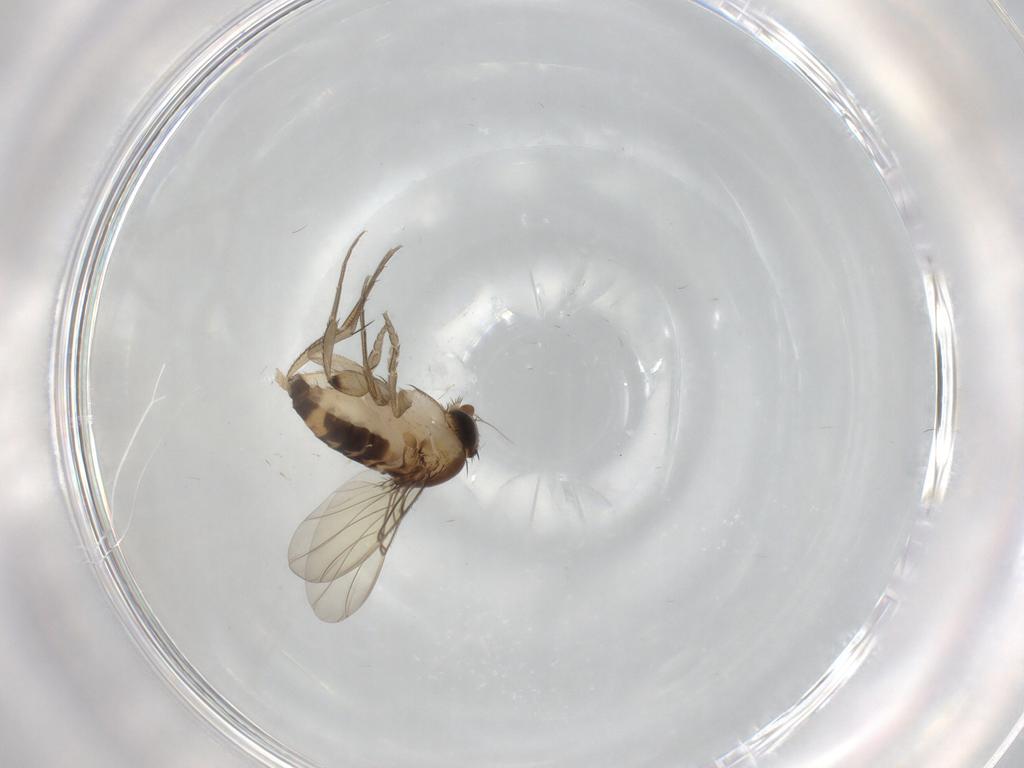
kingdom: Animalia
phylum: Arthropoda
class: Insecta
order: Diptera
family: Phoridae
